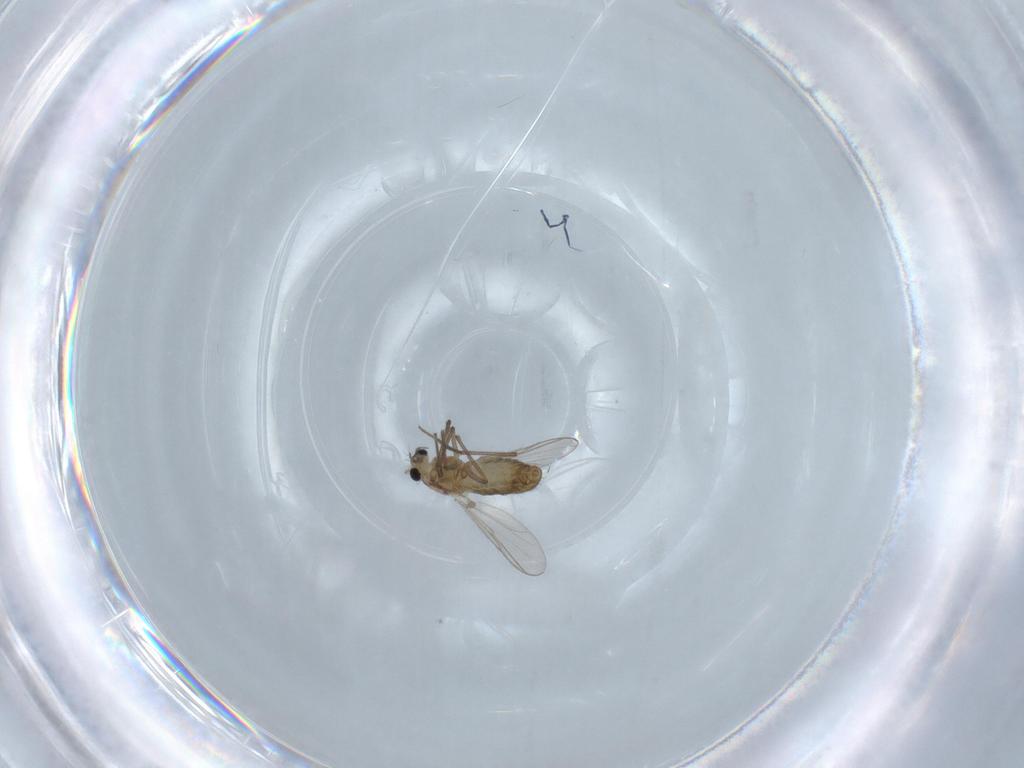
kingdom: Animalia
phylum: Arthropoda
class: Insecta
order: Diptera
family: Chironomidae
